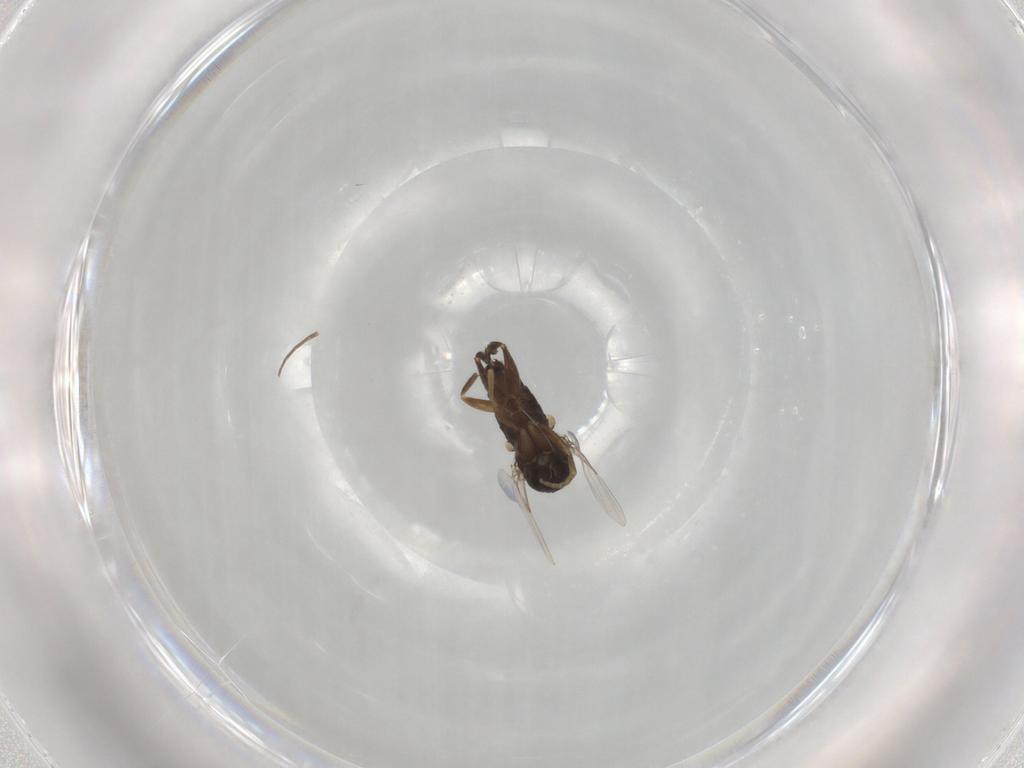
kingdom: Animalia
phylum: Arthropoda
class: Insecta
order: Diptera
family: Phoridae
